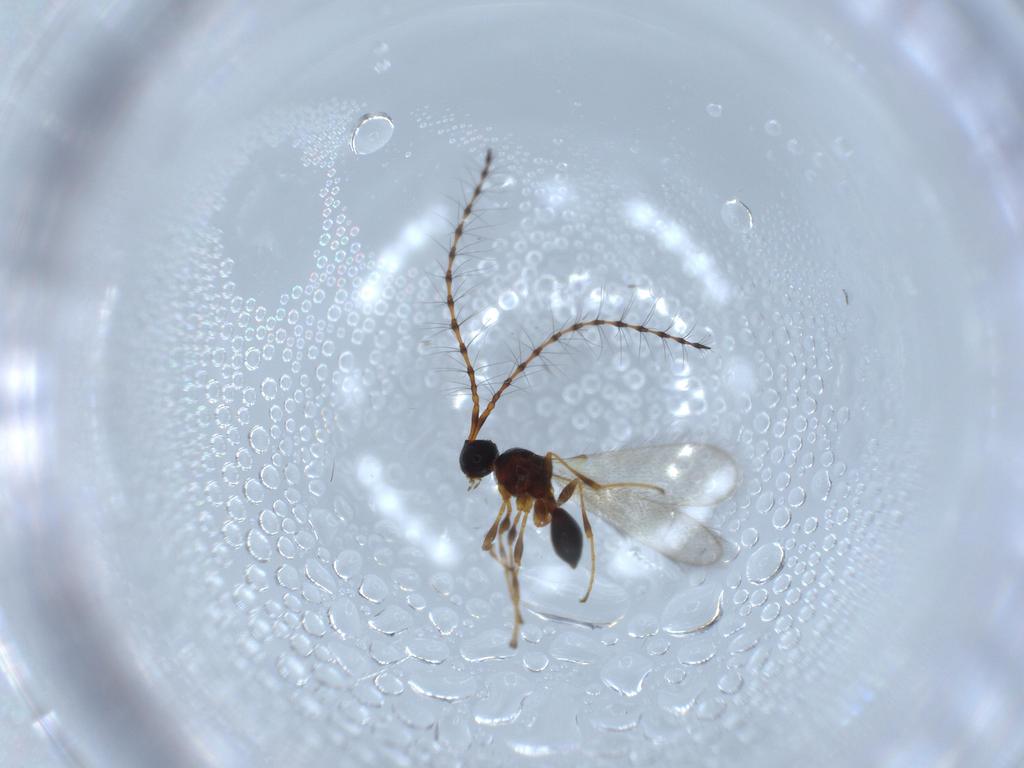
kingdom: Animalia
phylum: Arthropoda
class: Insecta
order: Hymenoptera
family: Diapriidae
